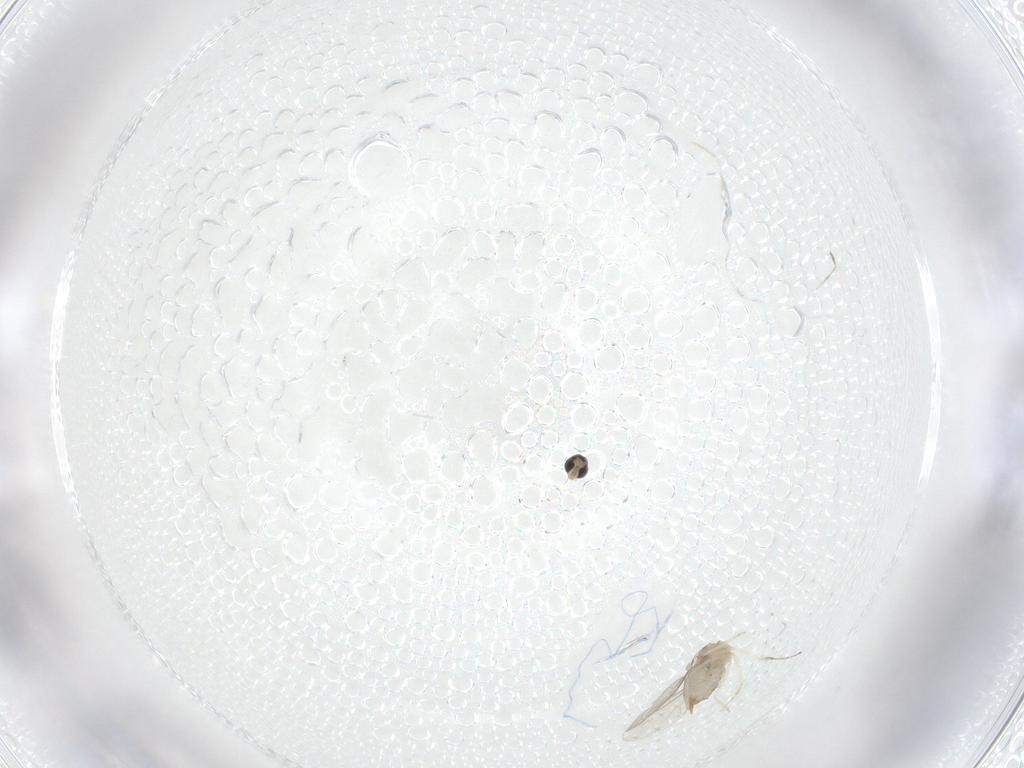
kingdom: Animalia
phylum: Arthropoda
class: Insecta
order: Diptera
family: Cecidomyiidae
